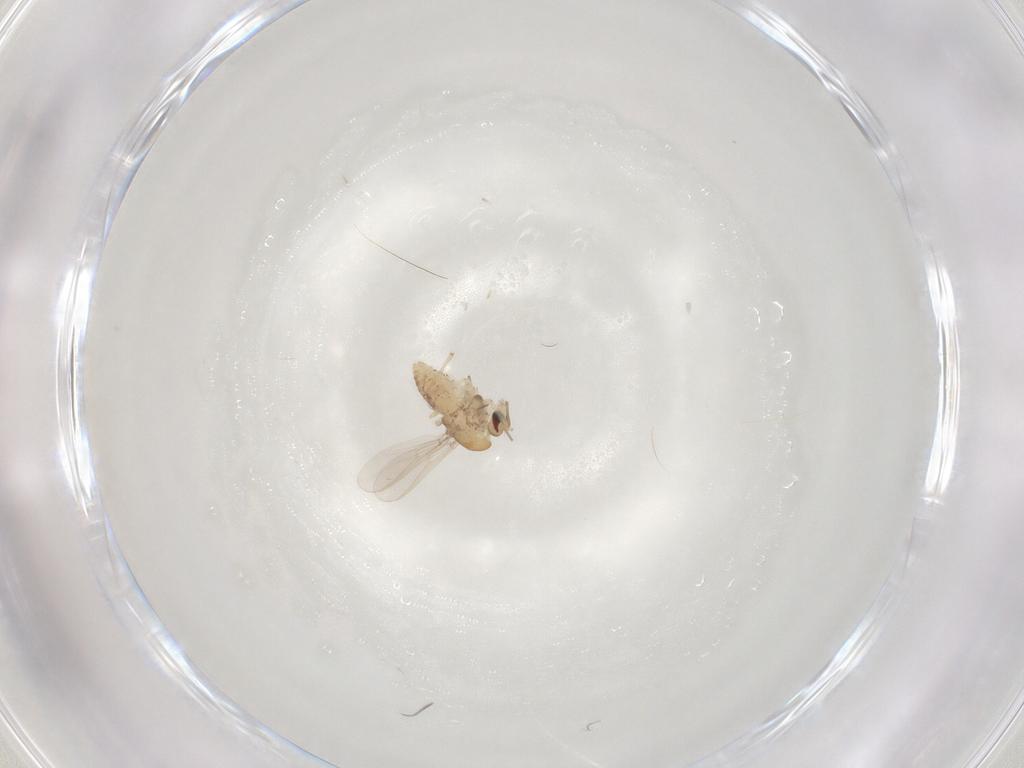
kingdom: Animalia
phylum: Arthropoda
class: Insecta
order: Diptera
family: Chironomidae
